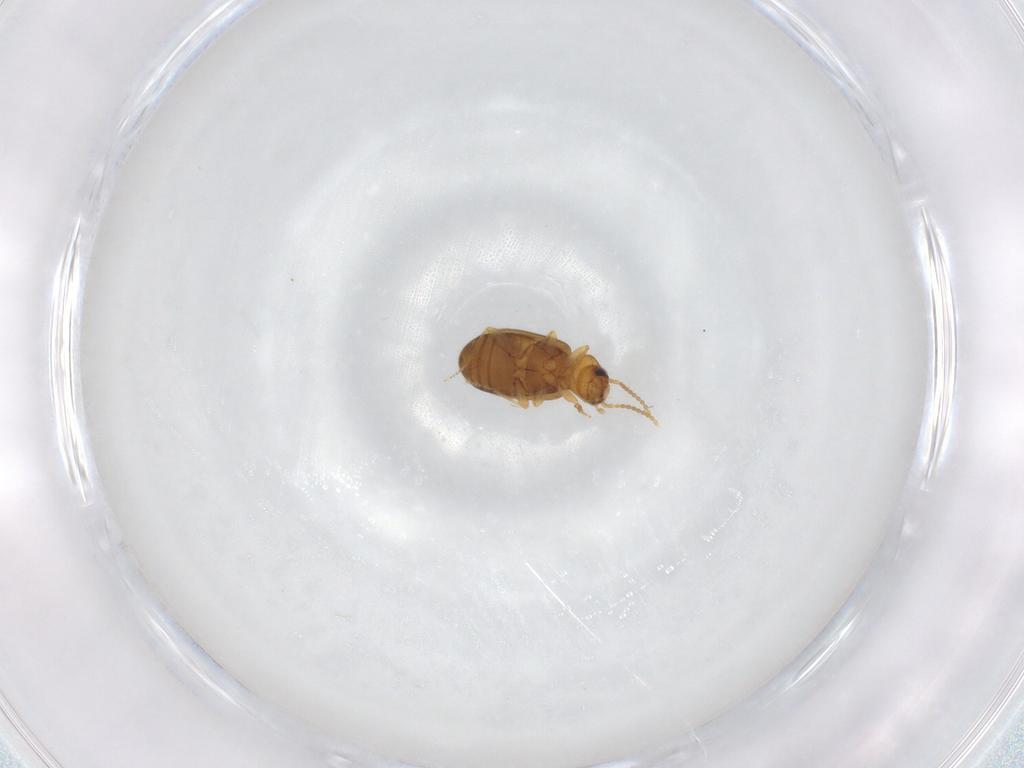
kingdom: Animalia
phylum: Arthropoda
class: Insecta
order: Coleoptera
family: Carabidae
